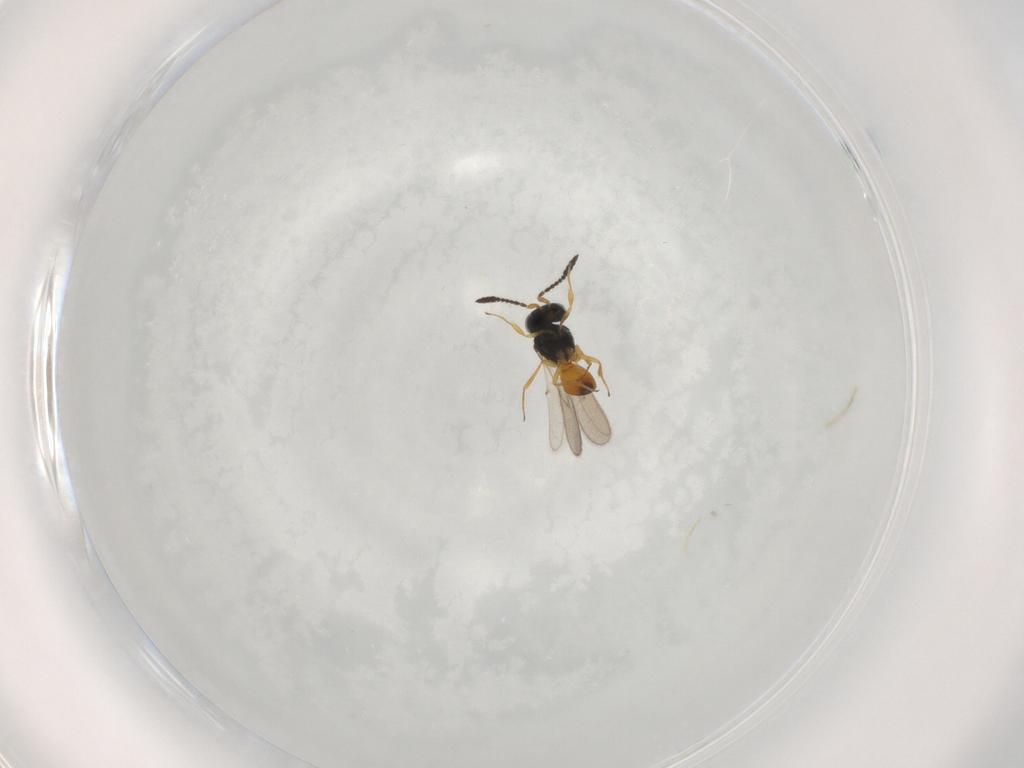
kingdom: Animalia
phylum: Arthropoda
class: Insecta
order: Hymenoptera
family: Scelionidae
